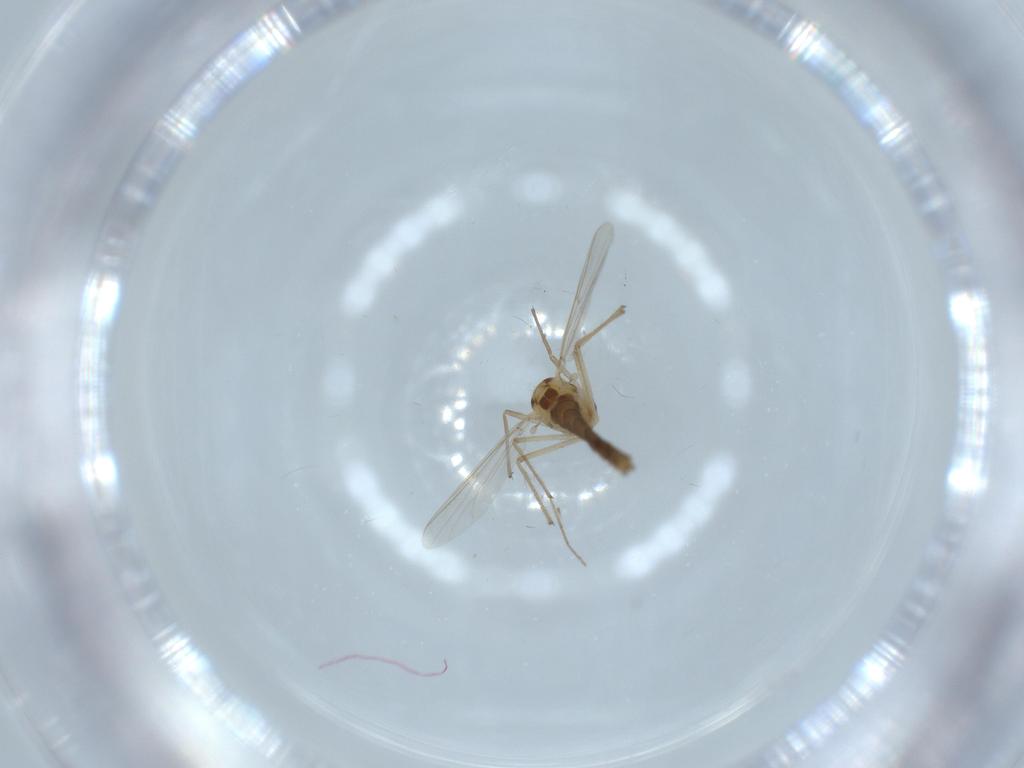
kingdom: Animalia
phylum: Arthropoda
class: Insecta
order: Diptera
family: Chironomidae
